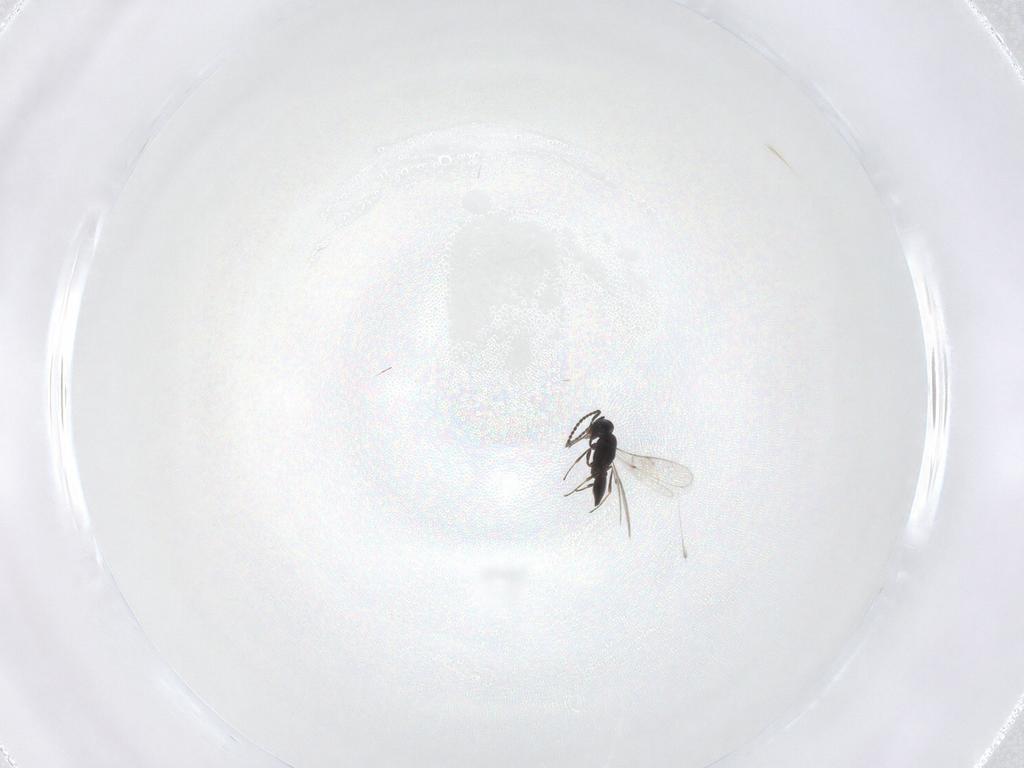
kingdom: Animalia
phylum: Arthropoda
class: Insecta
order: Hymenoptera
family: Scelionidae
